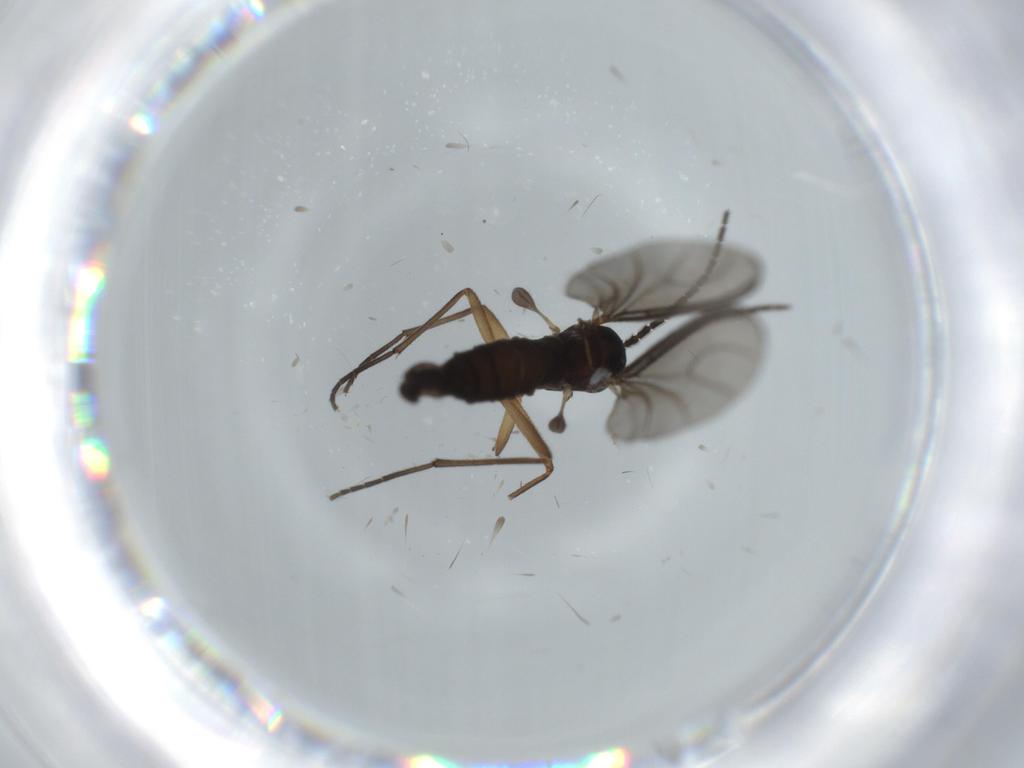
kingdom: Animalia
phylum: Arthropoda
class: Insecta
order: Diptera
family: Sciaridae
